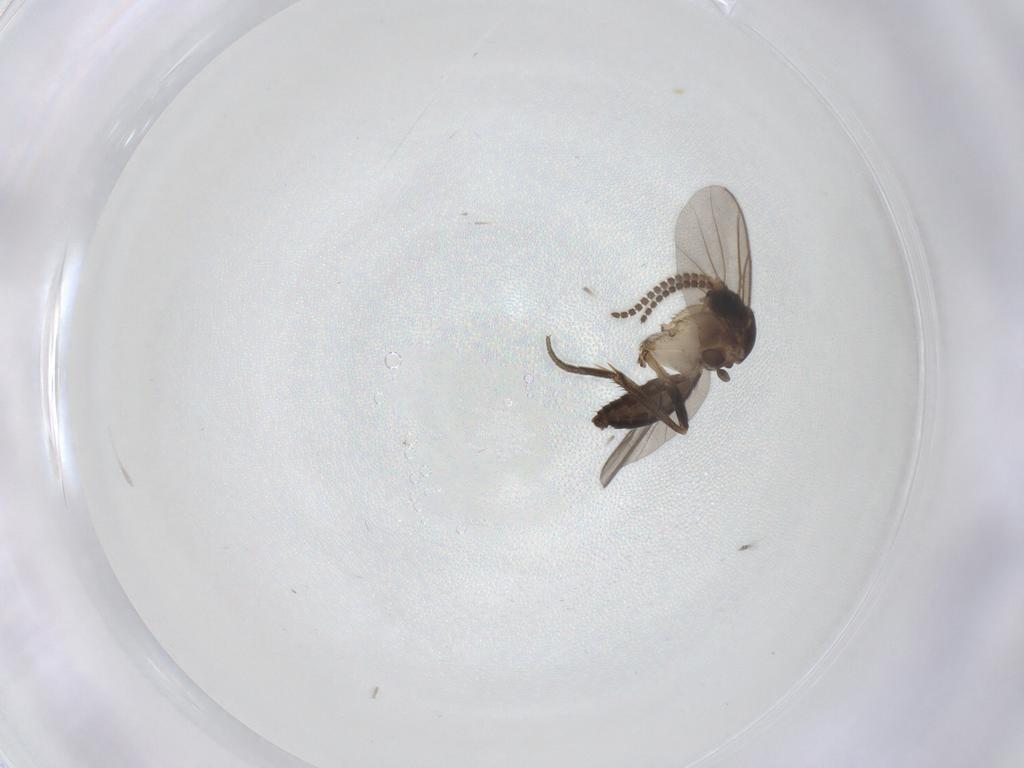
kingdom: Animalia
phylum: Arthropoda
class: Insecta
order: Diptera
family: Mycetophilidae
